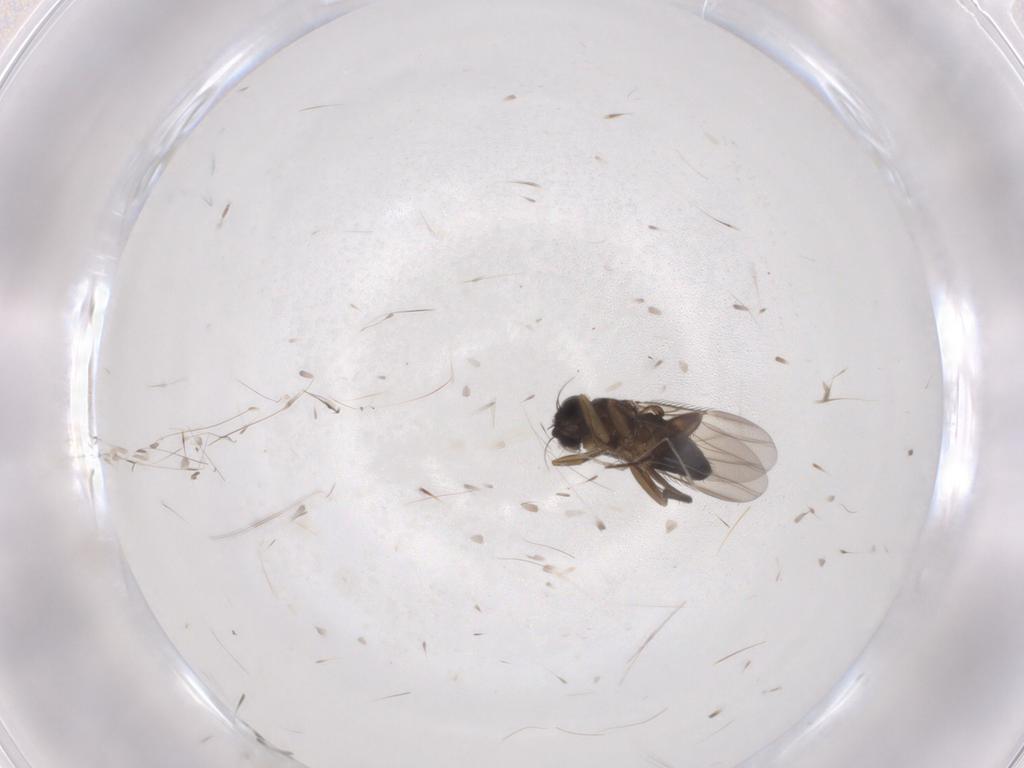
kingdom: Animalia
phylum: Arthropoda
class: Insecta
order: Diptera
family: Phoridae
